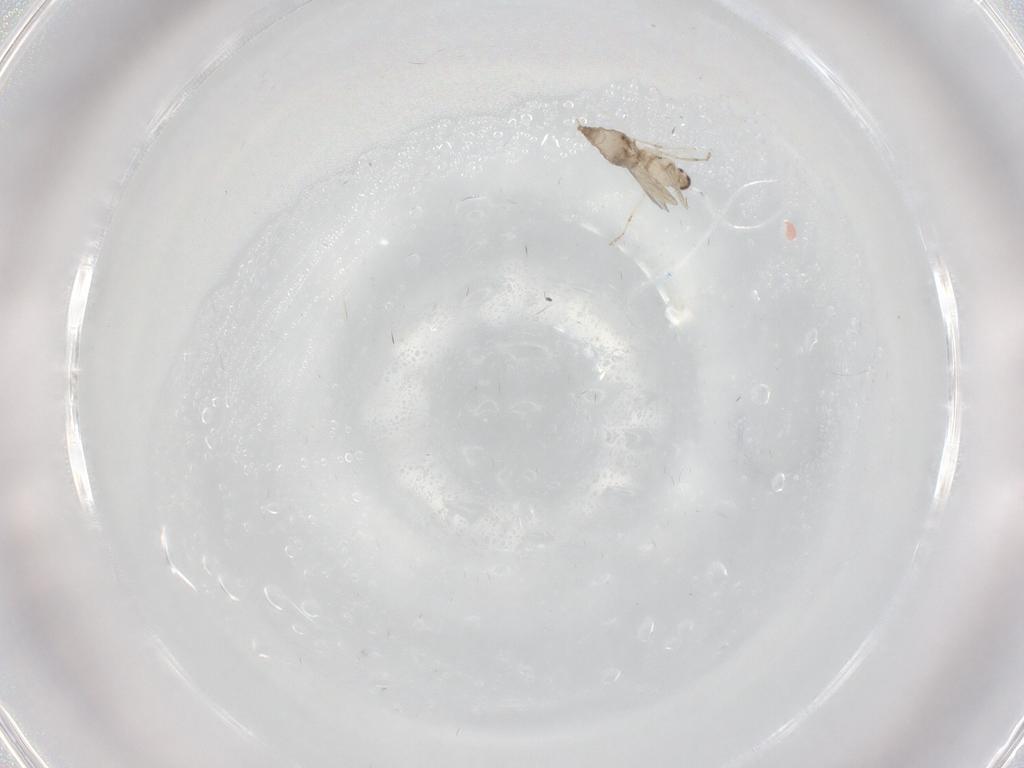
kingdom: Animalia
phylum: Arthropoda
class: Insecta
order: Diptera
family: Cecidomyiidae
